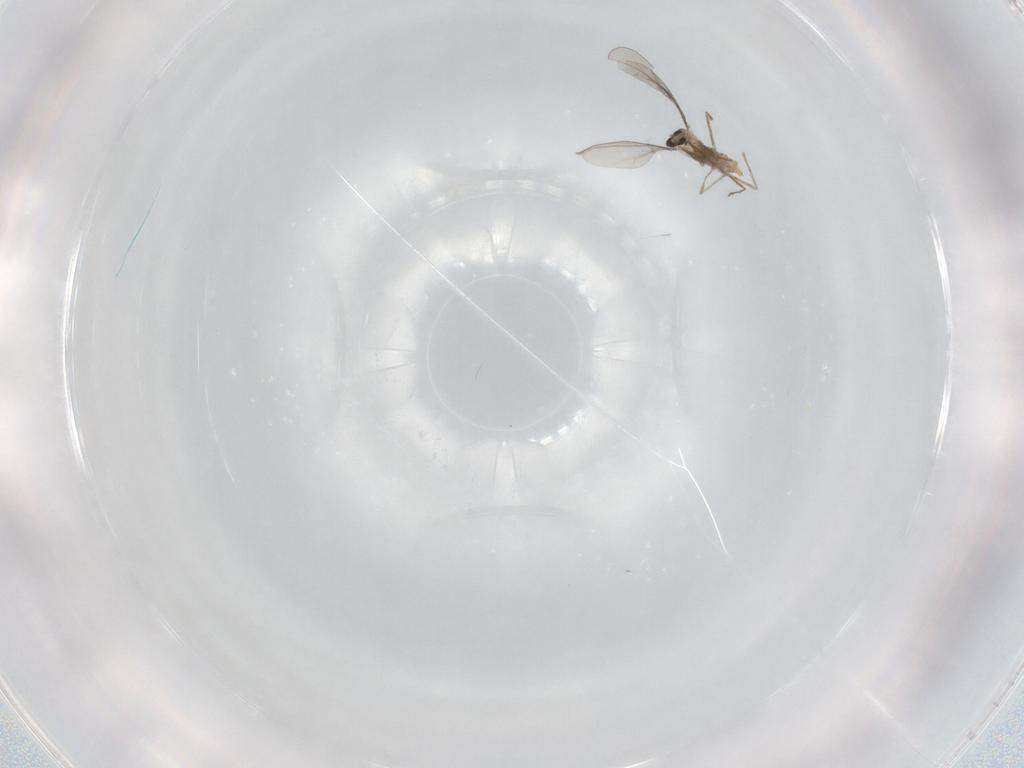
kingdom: Animalia
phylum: Arthropoda
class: Insecta
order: Diptera
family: Cecidomyiidae
